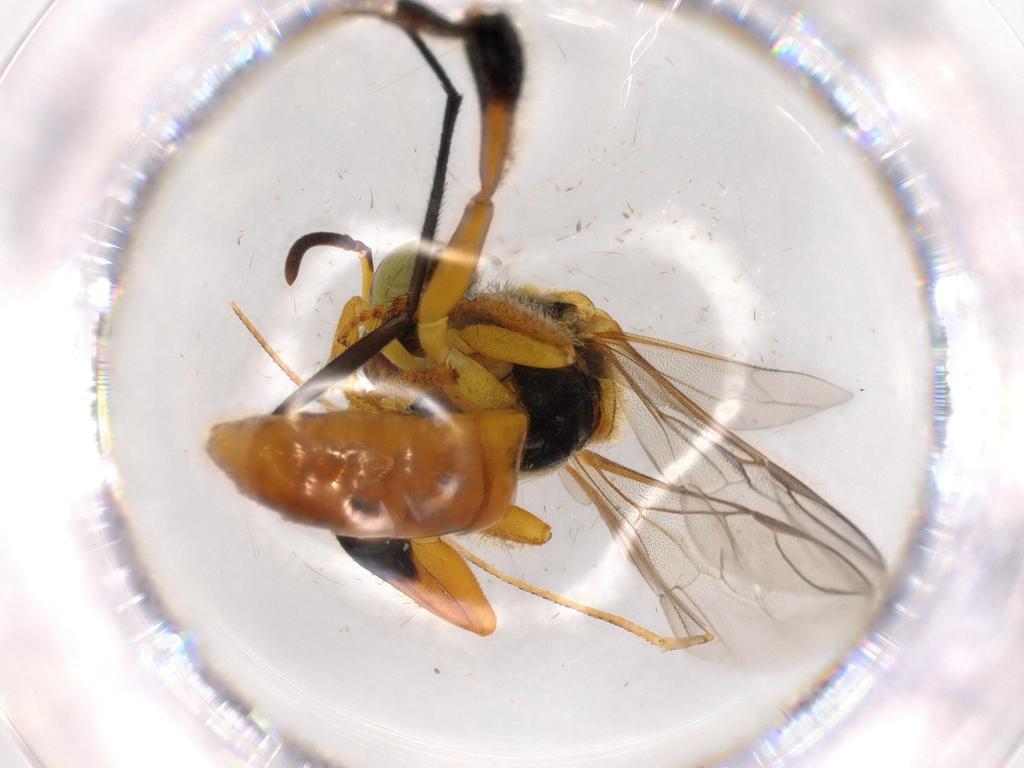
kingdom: Animalia
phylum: Arthropoda
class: Insecta
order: Hymenoptera
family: Apidae
